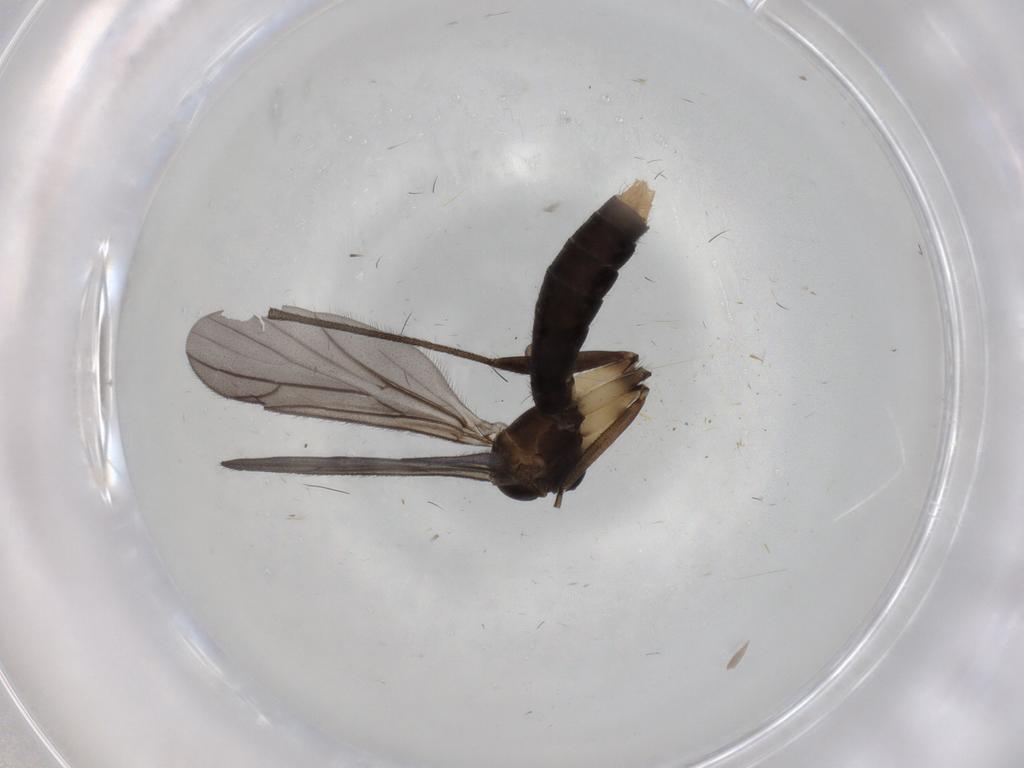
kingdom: Animalia
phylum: Arthropoda
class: Insecta
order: Diptera
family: Ditomyiidae
